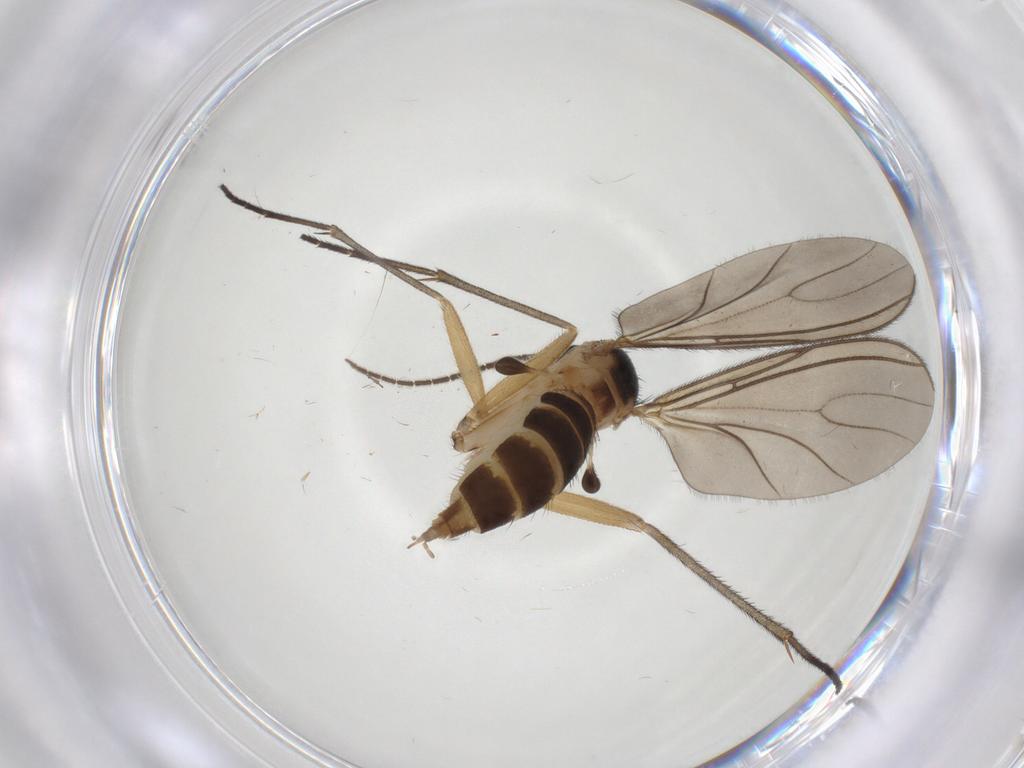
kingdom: Animalia
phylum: Arthropoda
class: Insecta
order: Diptera
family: Sciaridae
